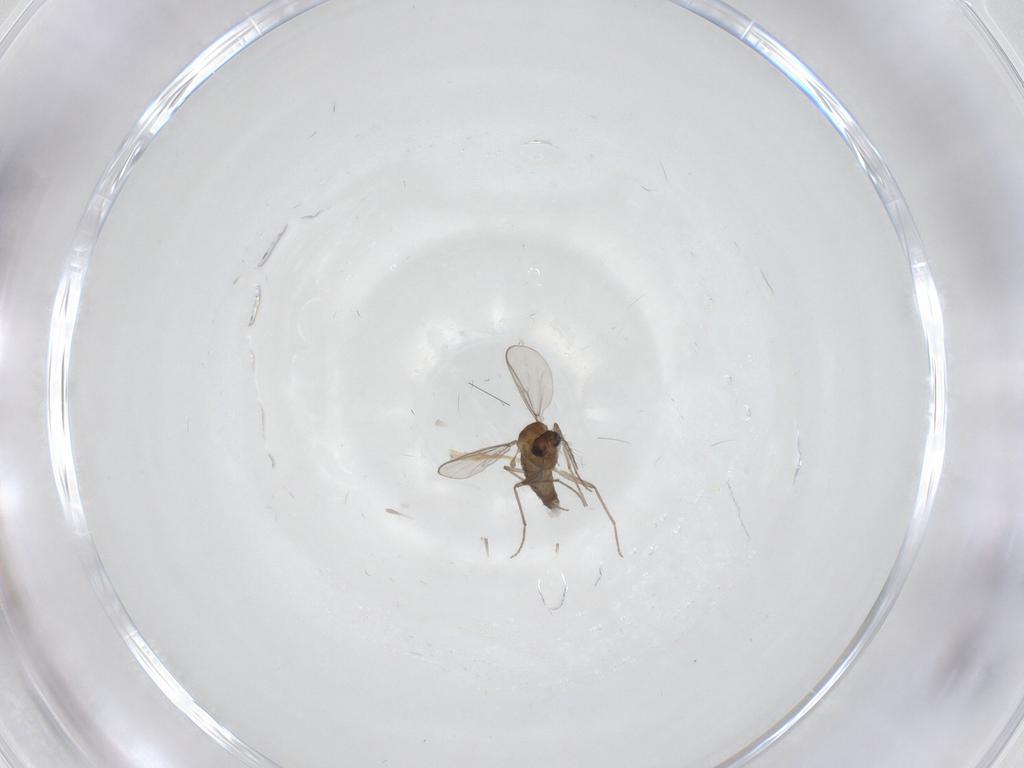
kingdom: Animalia
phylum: Arthropoda
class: Insecta
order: Diptera
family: Chironomidae
